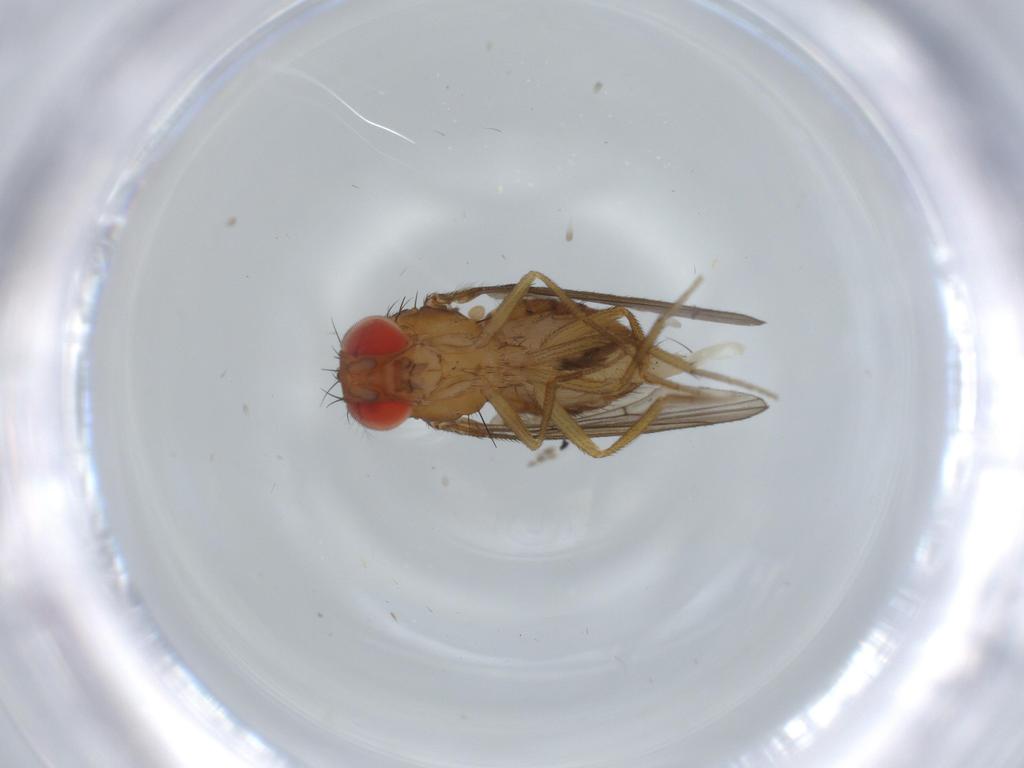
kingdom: Animalia
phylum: Arthropoda
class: Insecta
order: Diptera
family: Drosophilidae
